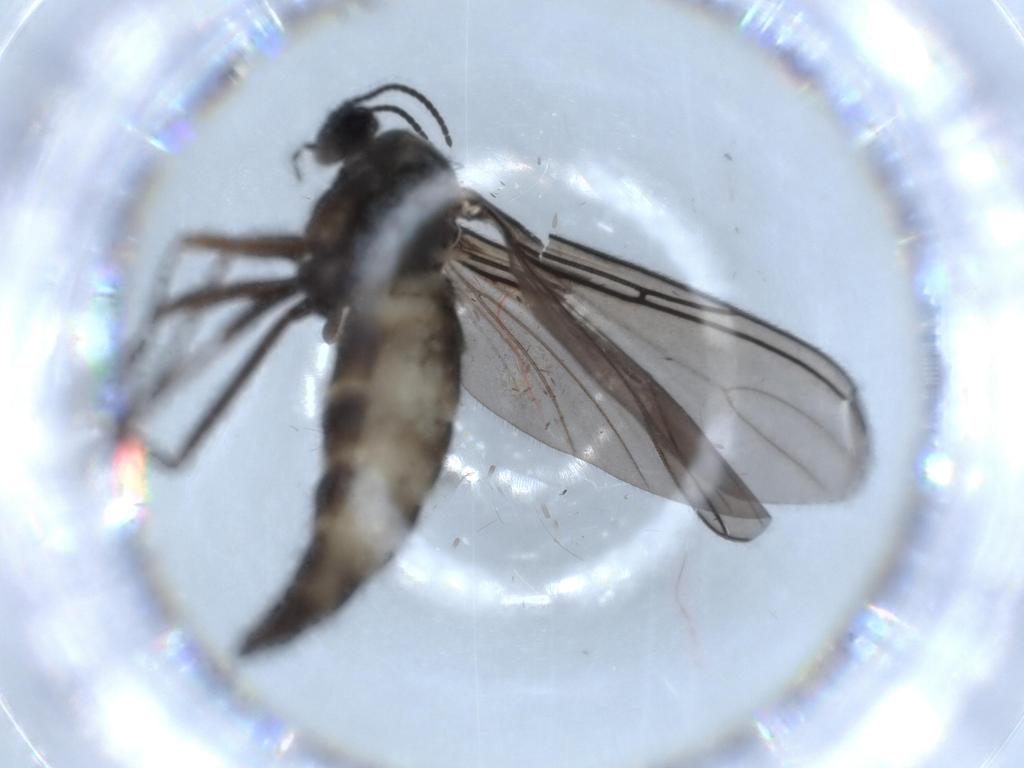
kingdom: Animalia
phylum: Arthropoda
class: Insecta
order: Diptera
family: Sciaridae
